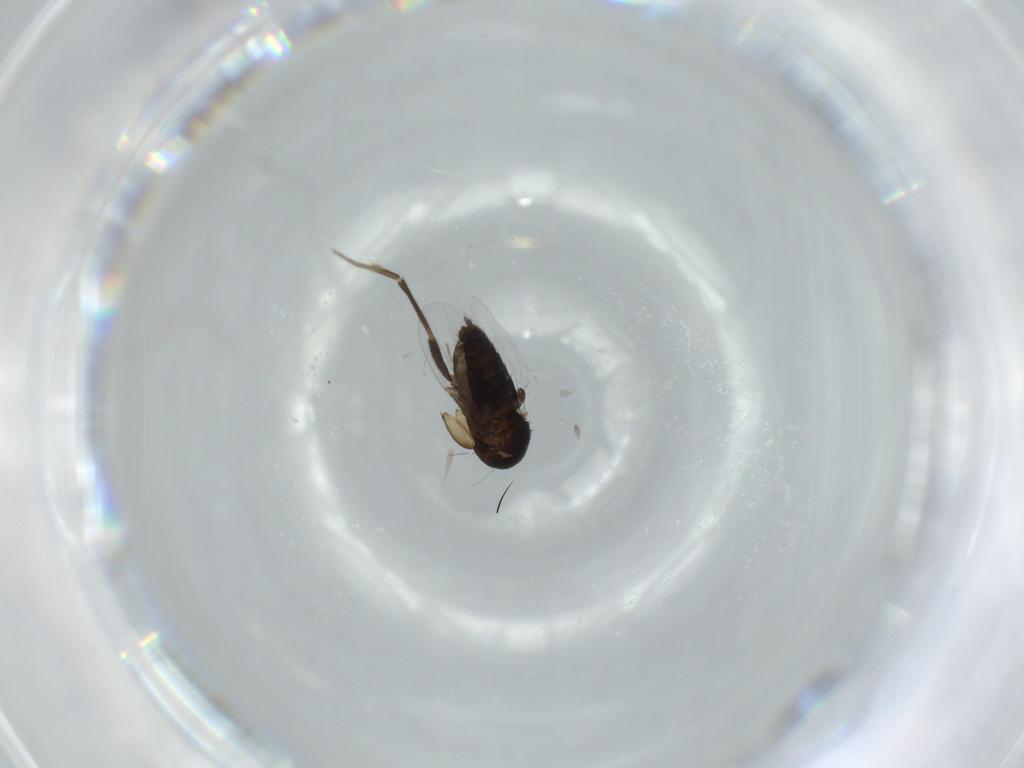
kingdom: Animalia
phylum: Arthropoda
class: Insecta
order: Diptera
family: Phoridae
